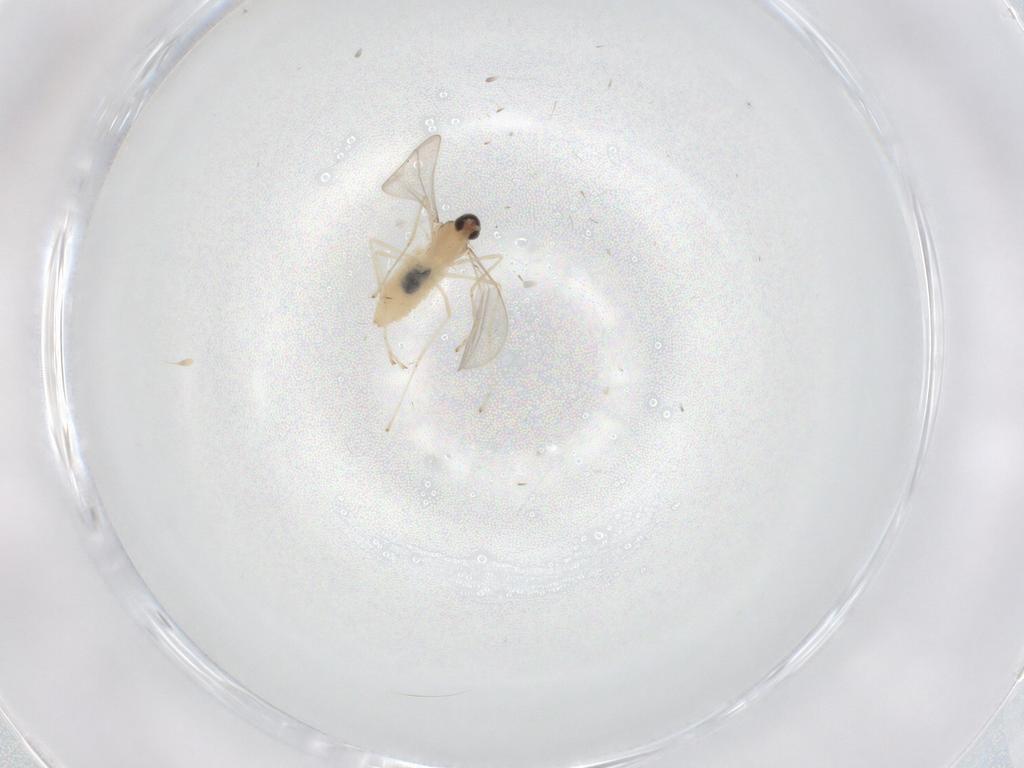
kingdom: Animalia
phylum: Arthropoda
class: Insecta
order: Diptera
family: Cecidomyiidae
